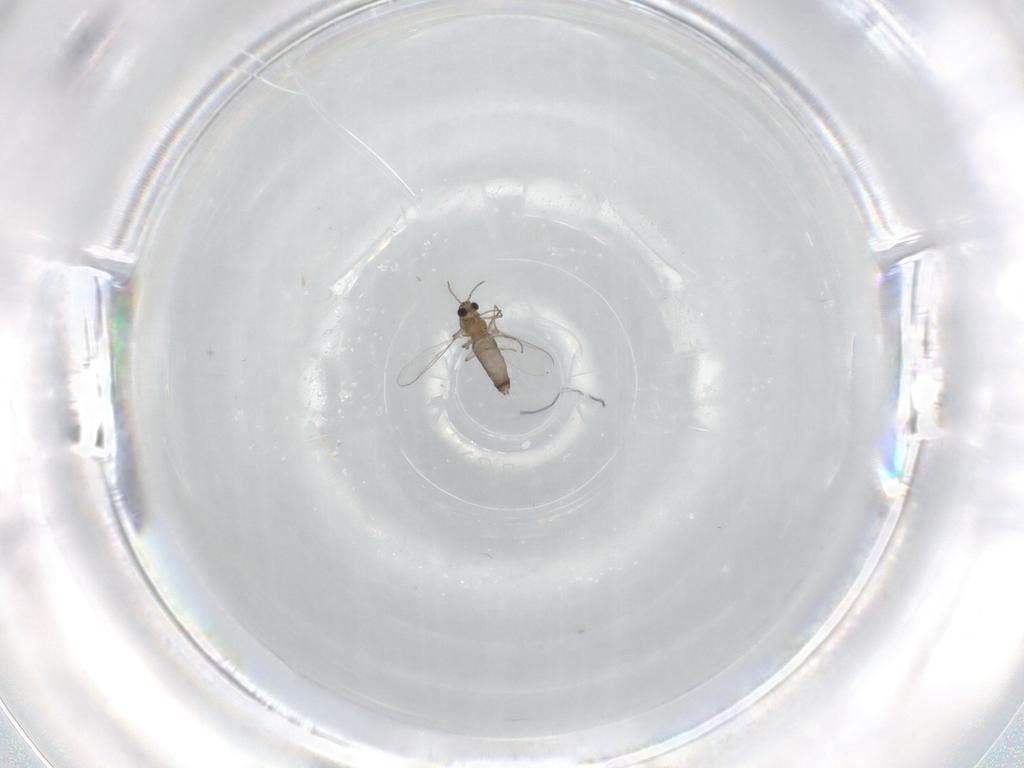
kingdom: Animalia
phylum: Arthropoda
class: Insecta
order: Diptera
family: Chironomidae
